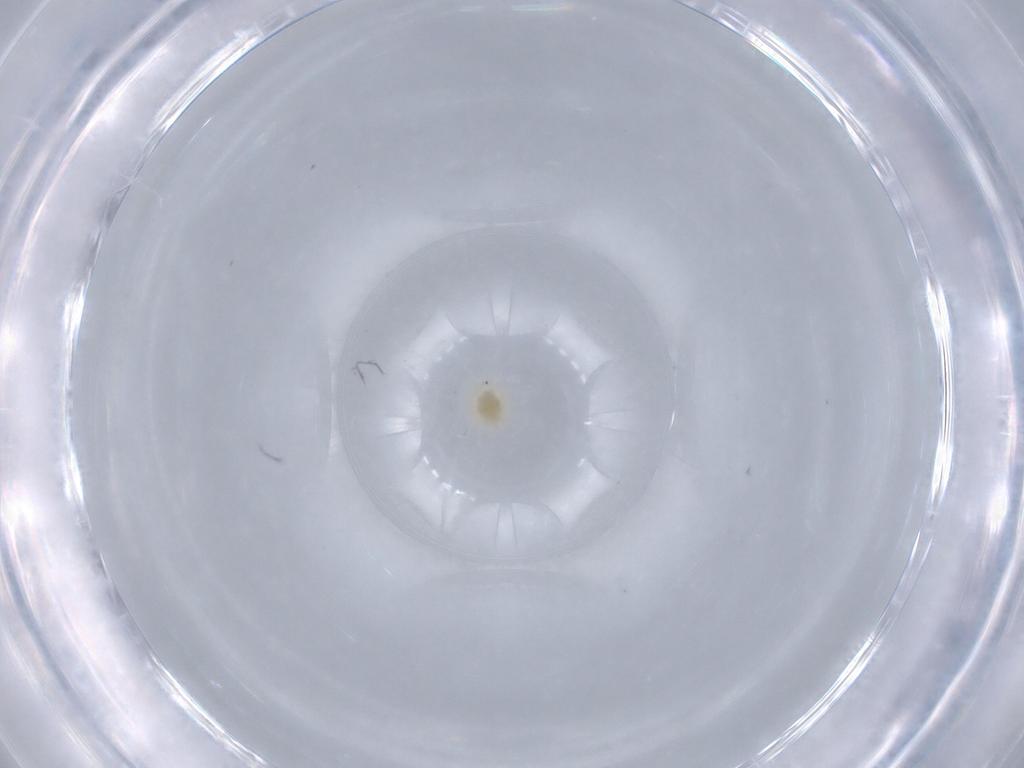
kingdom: Animalia
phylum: Arthropoda
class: Arachnida
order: Trombidiformes
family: Tetranychidae
